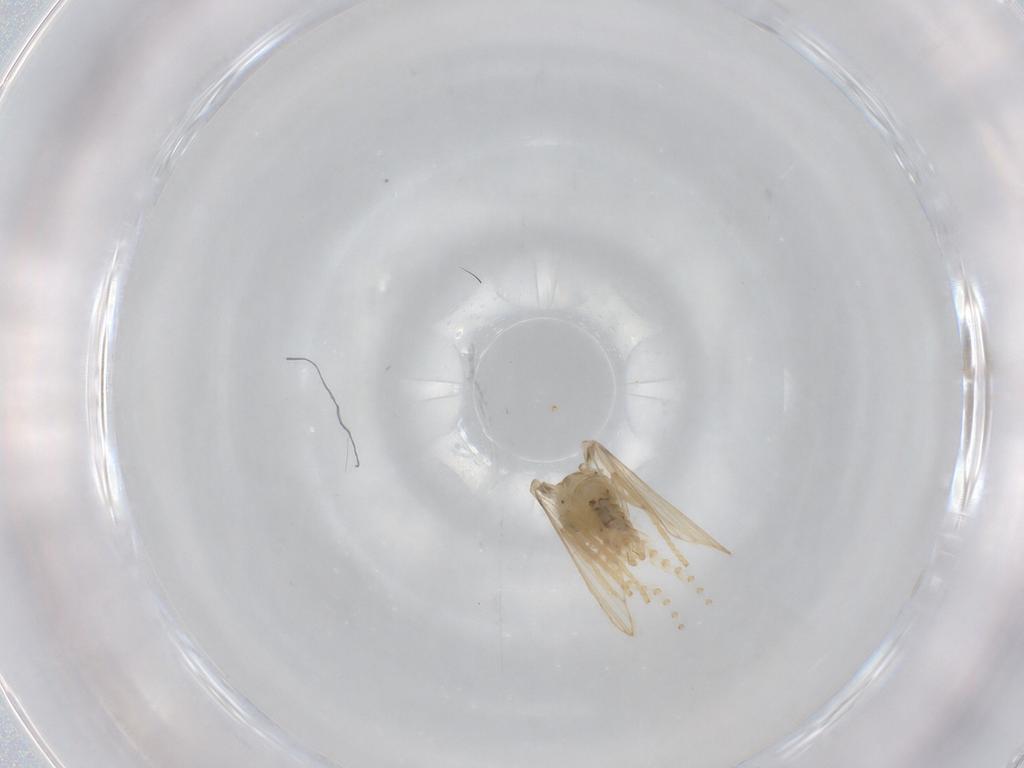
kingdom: Animalia
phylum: Arthropoda
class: Insecta
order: Diptera
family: Psychodidae
